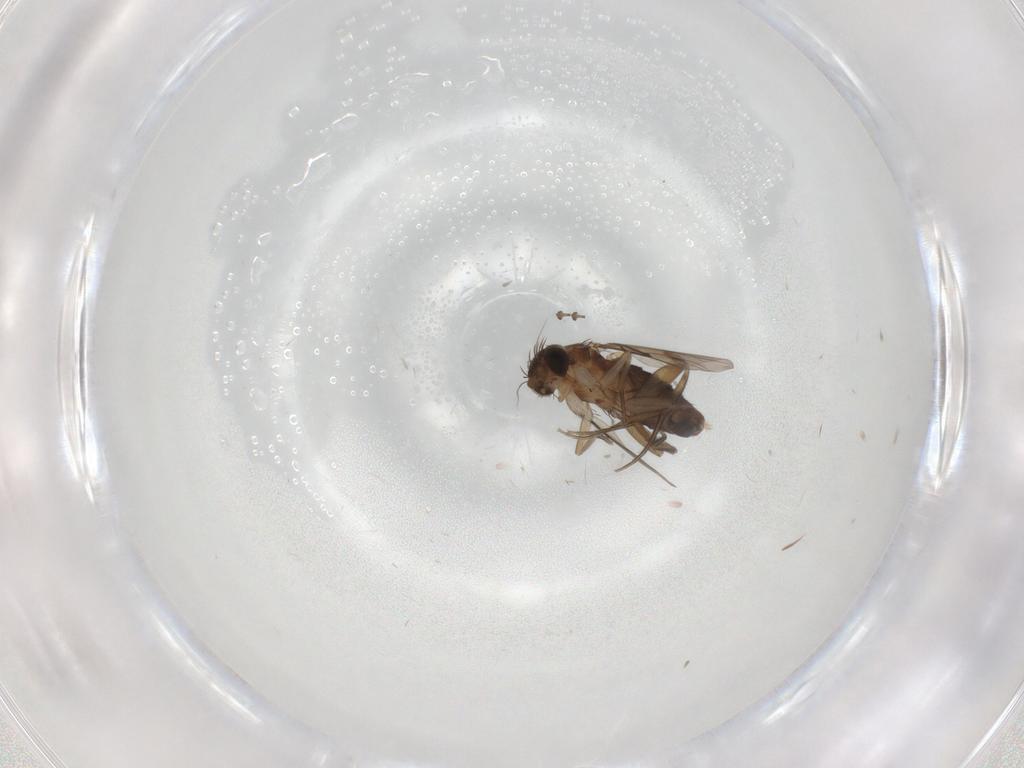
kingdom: Animalia
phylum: Arthropoda
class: Insecta
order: Diptera
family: Phoridae
